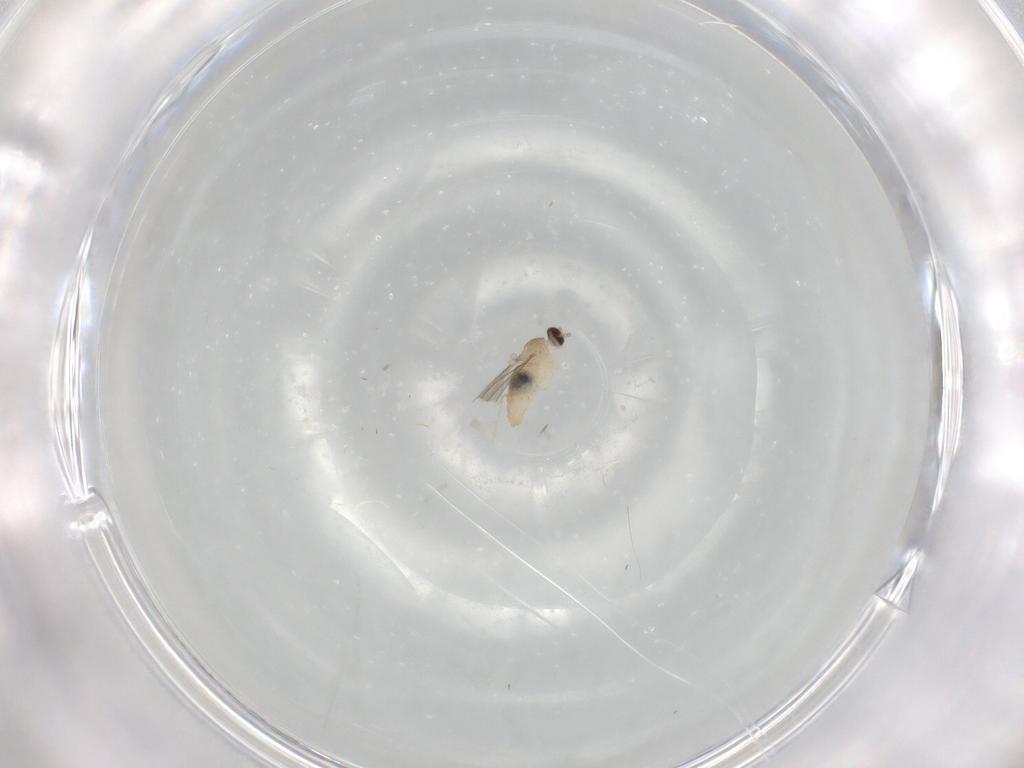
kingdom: Animalia
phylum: Arthropoda
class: Insecta
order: Diptera
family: Cecidomyiidae
